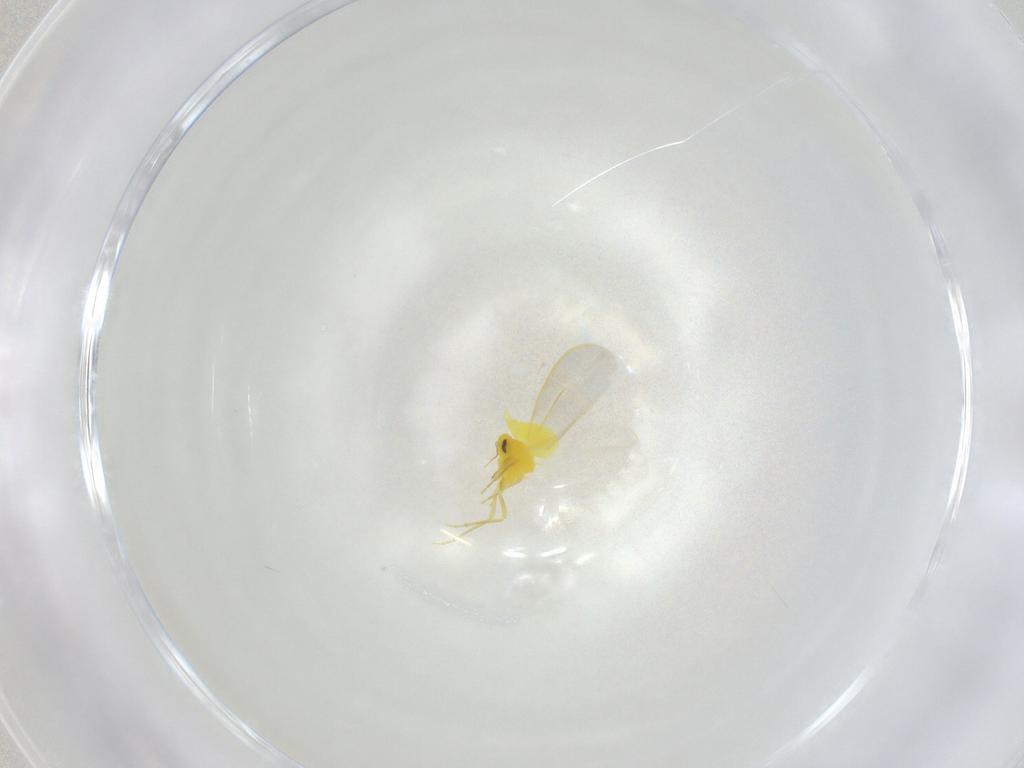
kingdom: Animalia
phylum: Arthropoda
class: Insecta
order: Hemiptera
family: Aleyrodidae
